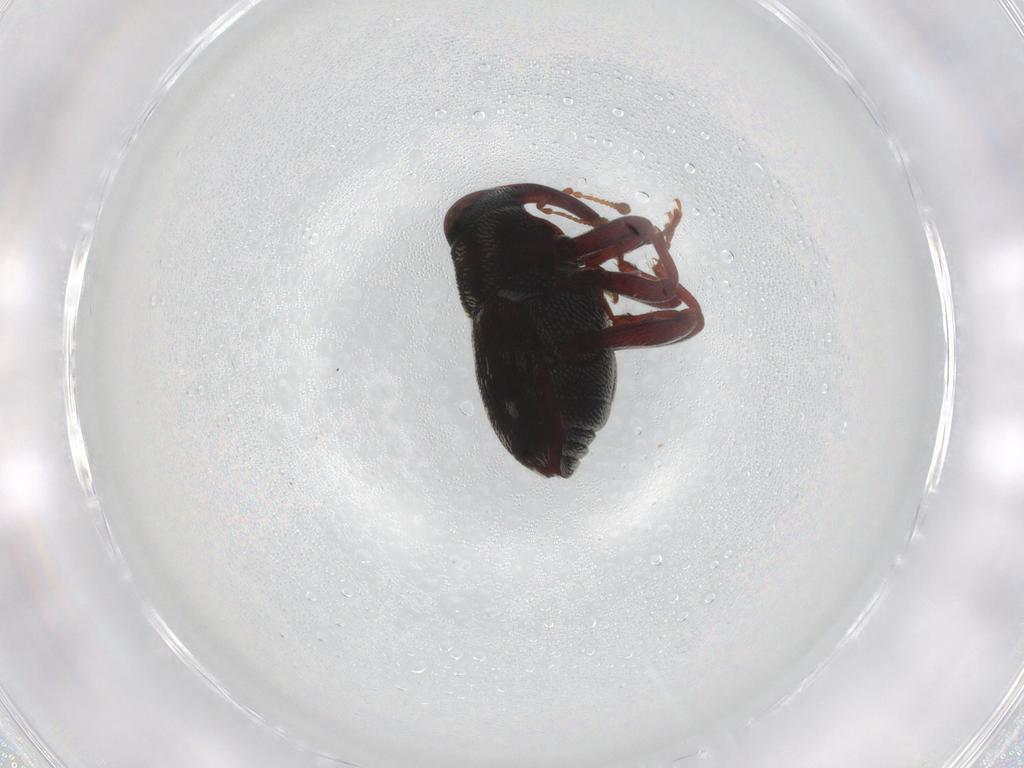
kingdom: Animalia
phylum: Arthropoda
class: Insecta
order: Coleoptera
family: Curculionidae
